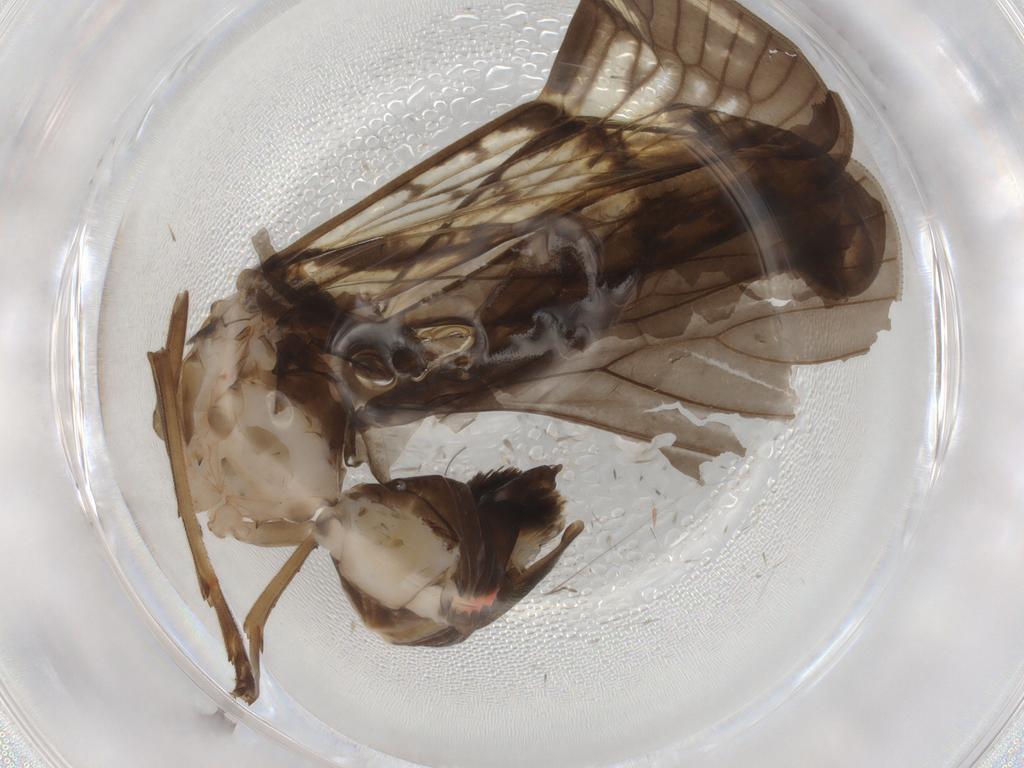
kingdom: Animalia
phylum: Arthropoda
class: Insecta
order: Hemiptera
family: Cixiidae
